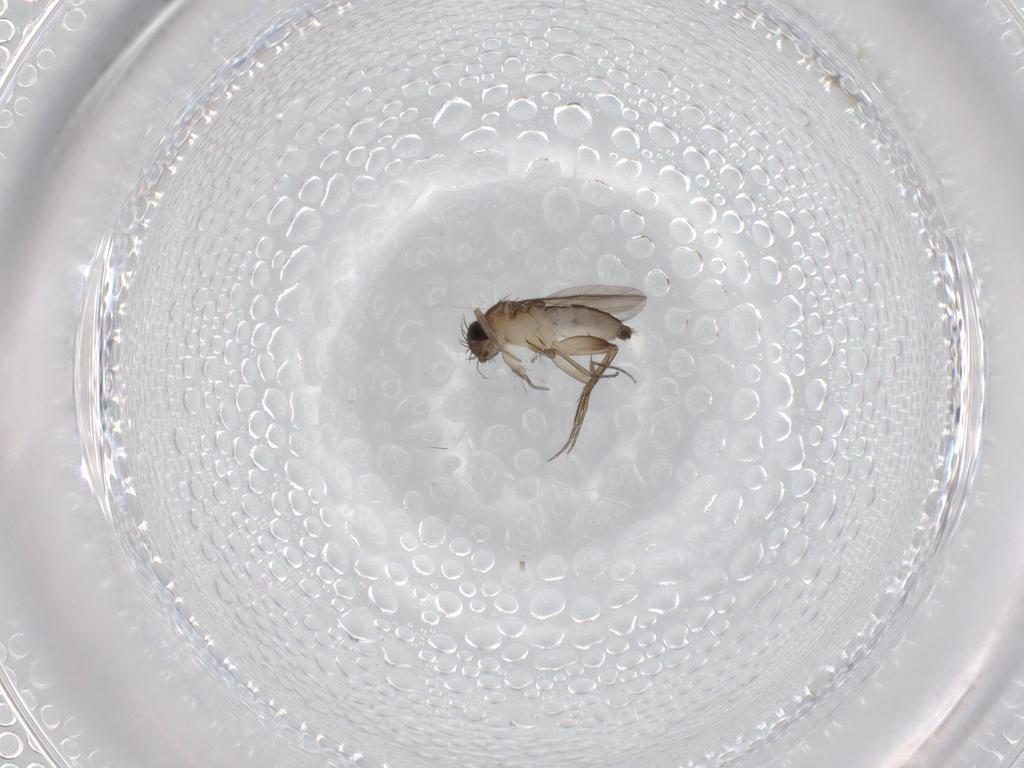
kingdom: Animalia
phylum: Arthropoda
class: Insecta
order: Diptera
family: Phoridae
